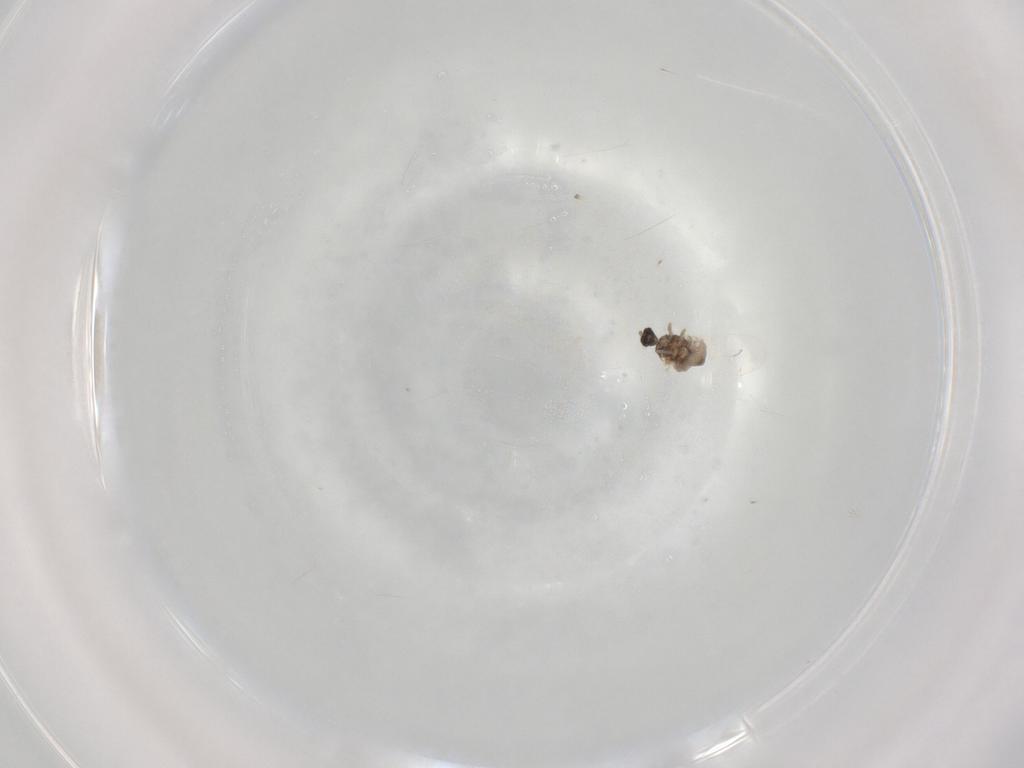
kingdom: Animalia
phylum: Arthropoda
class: Insecta
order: Diptera
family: Cecidomyiidae
